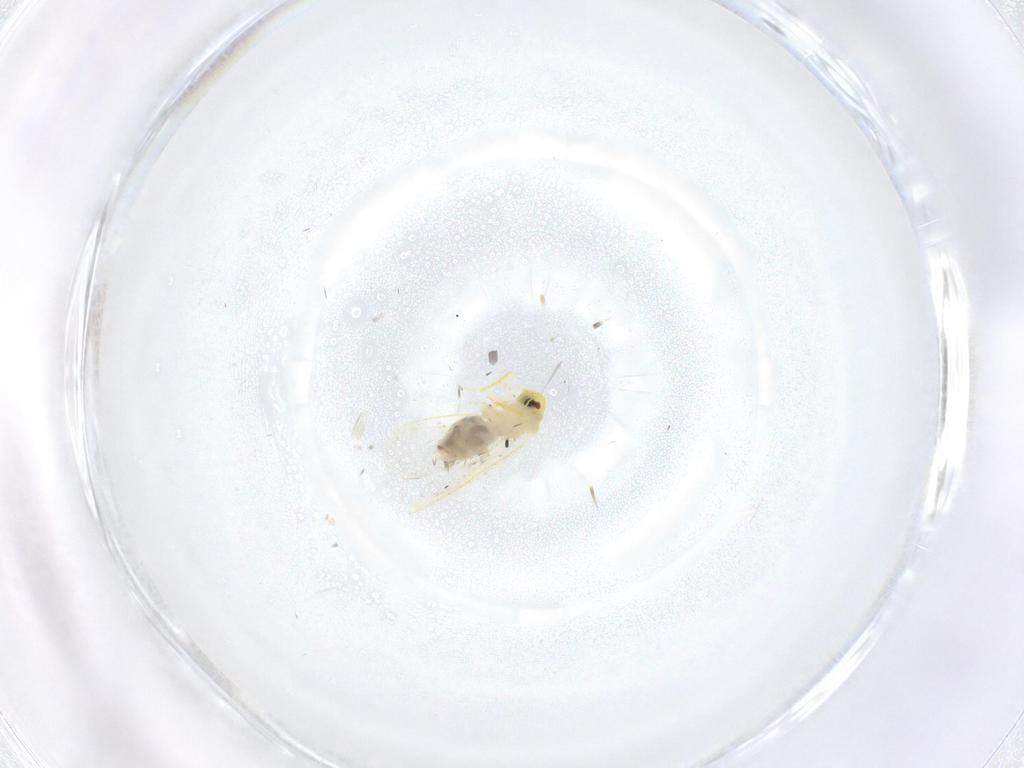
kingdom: Animalia
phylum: Arthropoda
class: Insecta
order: Hemiptera
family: Aleyrodidae
